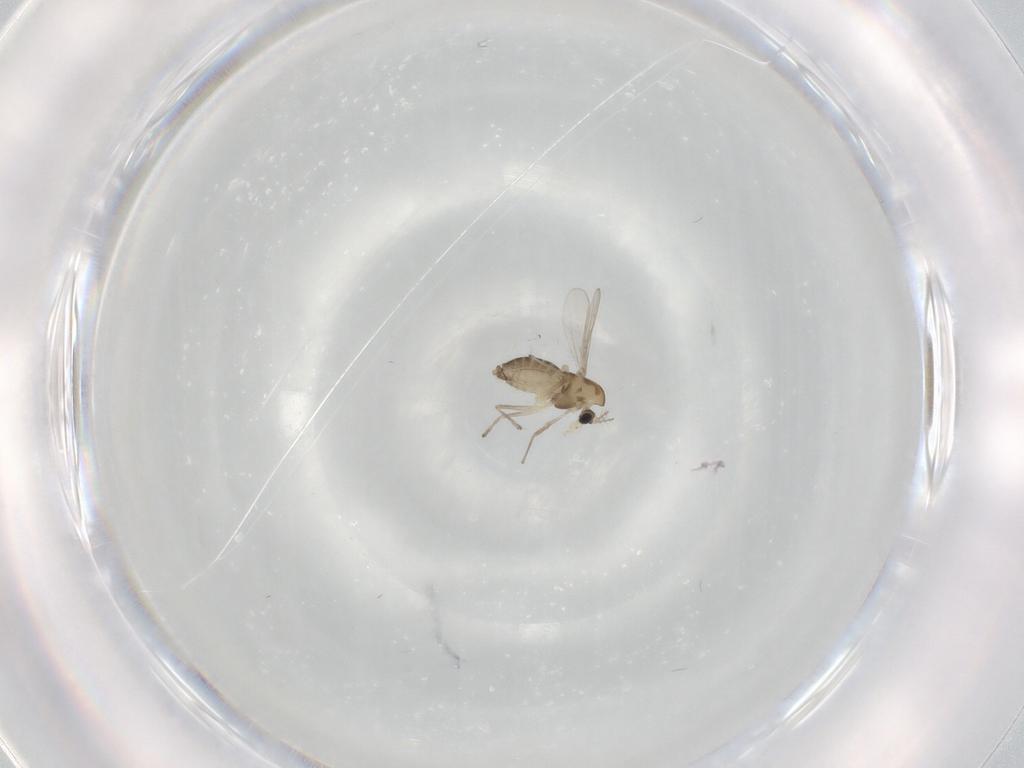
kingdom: Animalia
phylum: Arthropoda
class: Insecta
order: Diptera
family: Chironomidae
